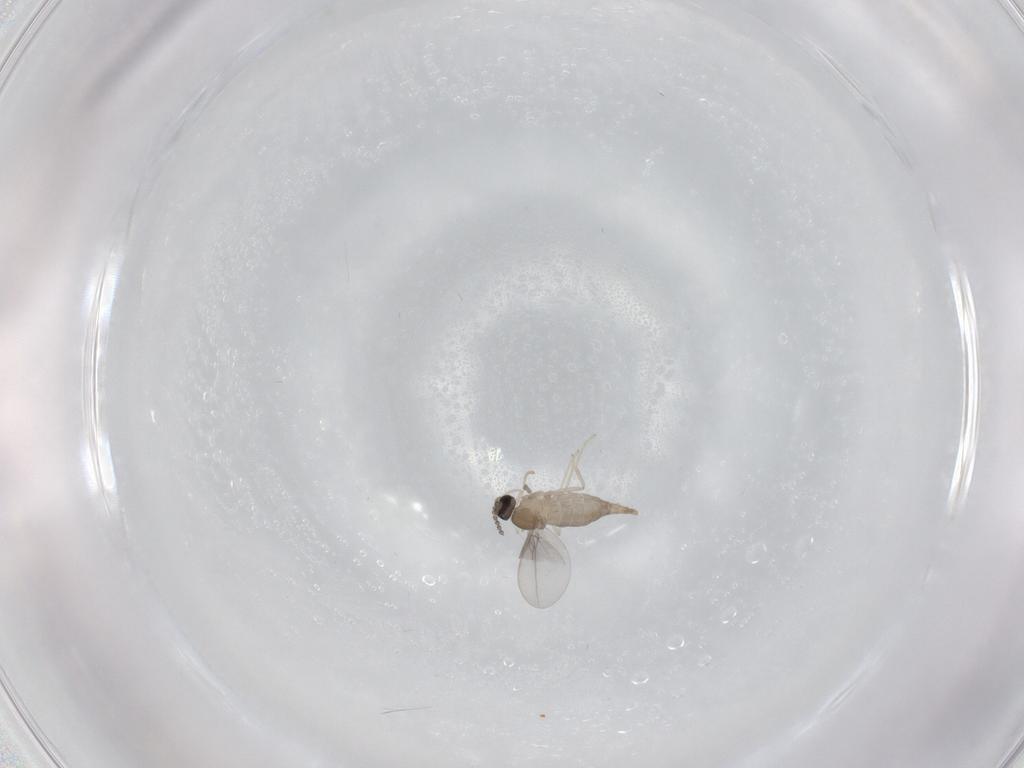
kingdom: Animalia
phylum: Arthropoda
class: Insecta
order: Diptera
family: Cecidomyiidae
